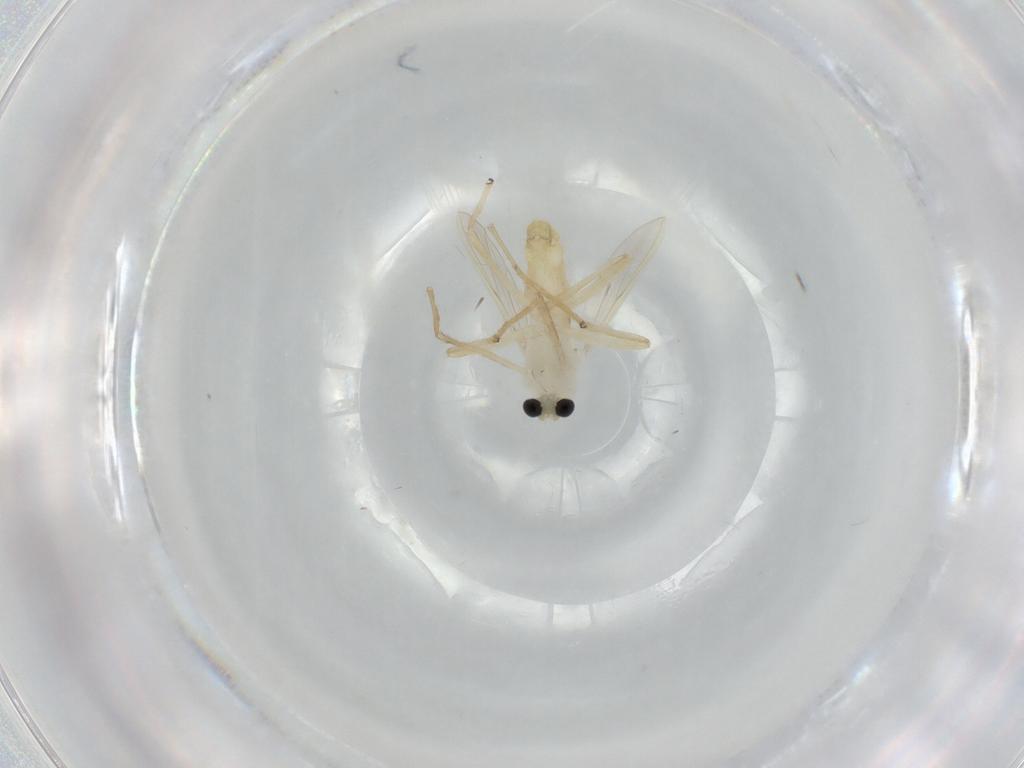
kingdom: Animalia
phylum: Arthropoda
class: Insecta
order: Diptera
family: Chironomidae
